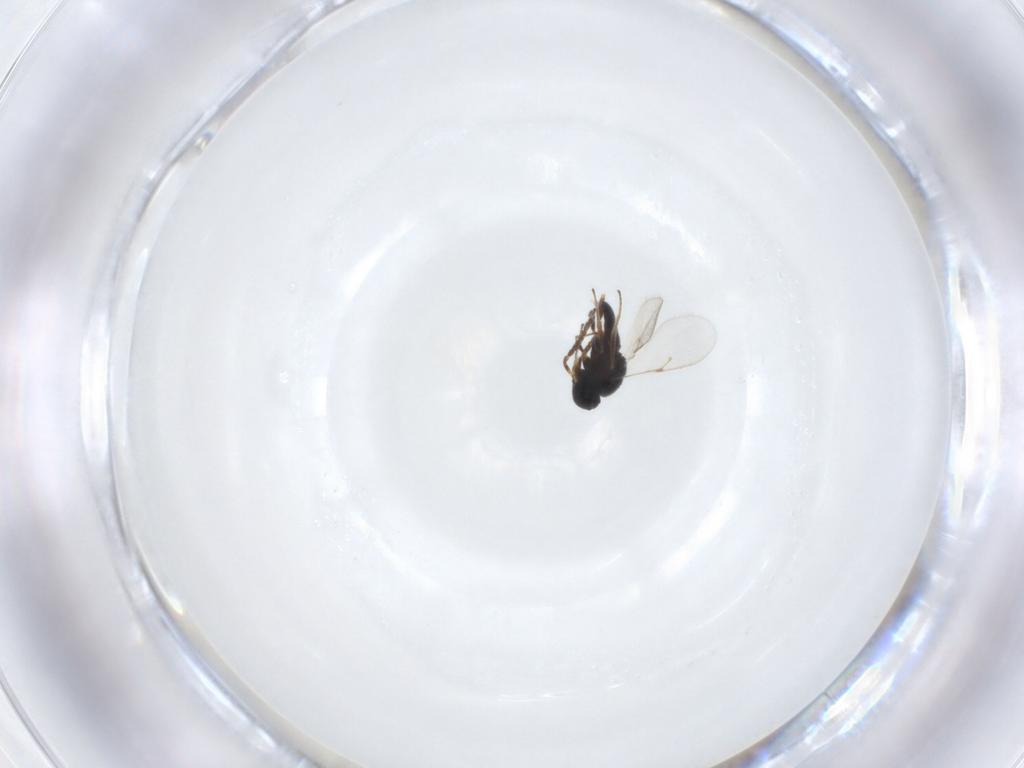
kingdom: Animalia
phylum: Arthropoda
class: Insecta
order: Hymenoptera
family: Scelionidae
